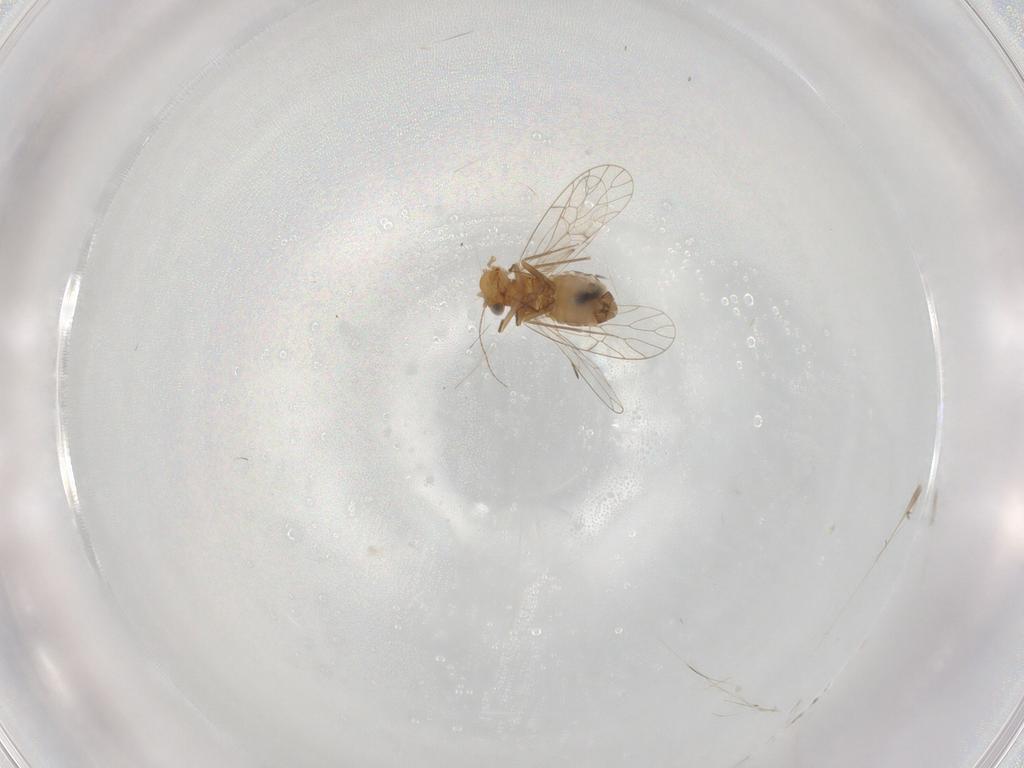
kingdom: Animalia
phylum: Arthropoda
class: Insecta
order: Psocodea
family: Prionoglarididae
